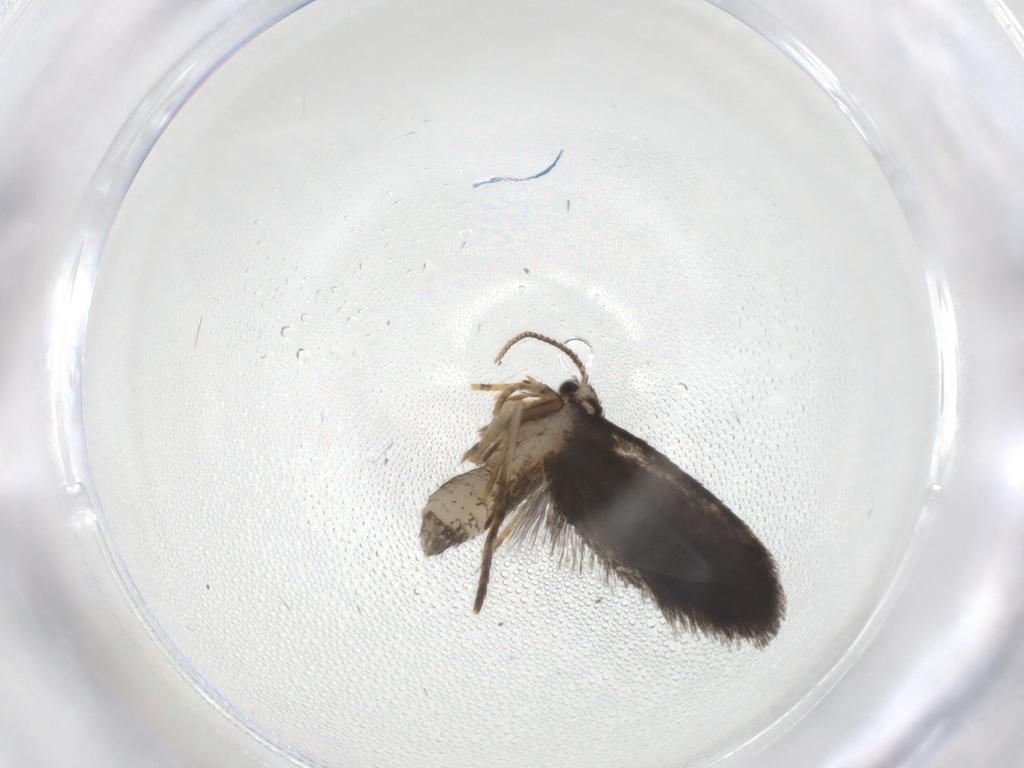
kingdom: Animalia
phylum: Arthropoda
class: Insecta
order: Lepidoptera
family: Psychidae
